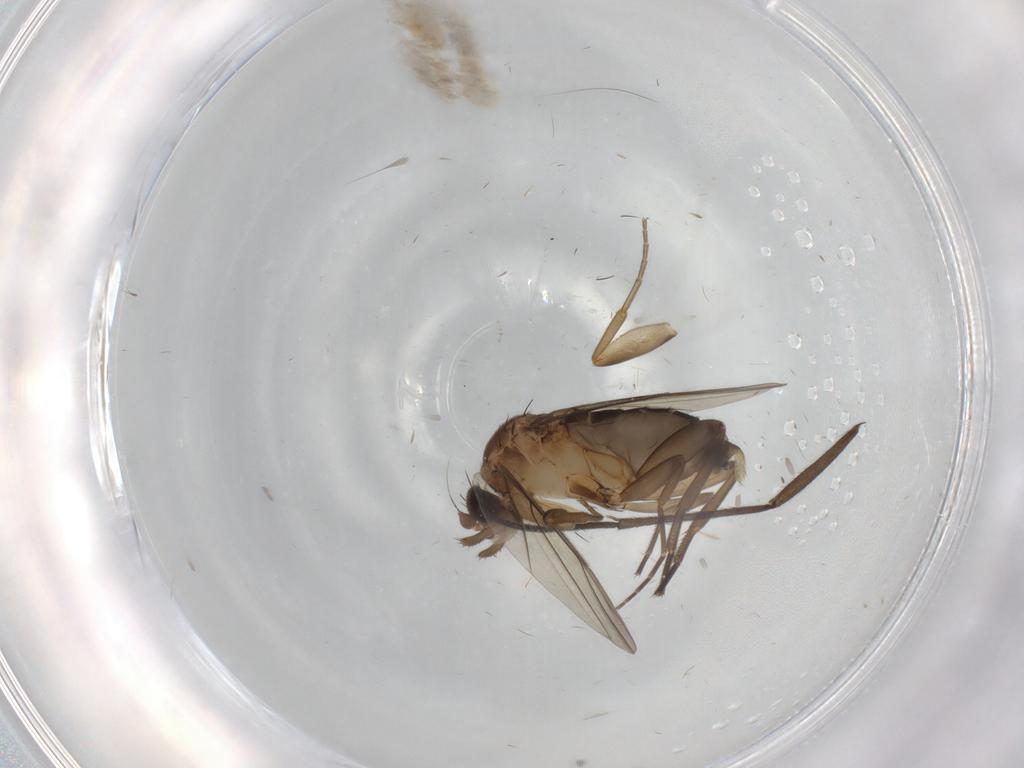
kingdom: Animalia
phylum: Arthropoda
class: Insecta
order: Diptera
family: Phoridae
